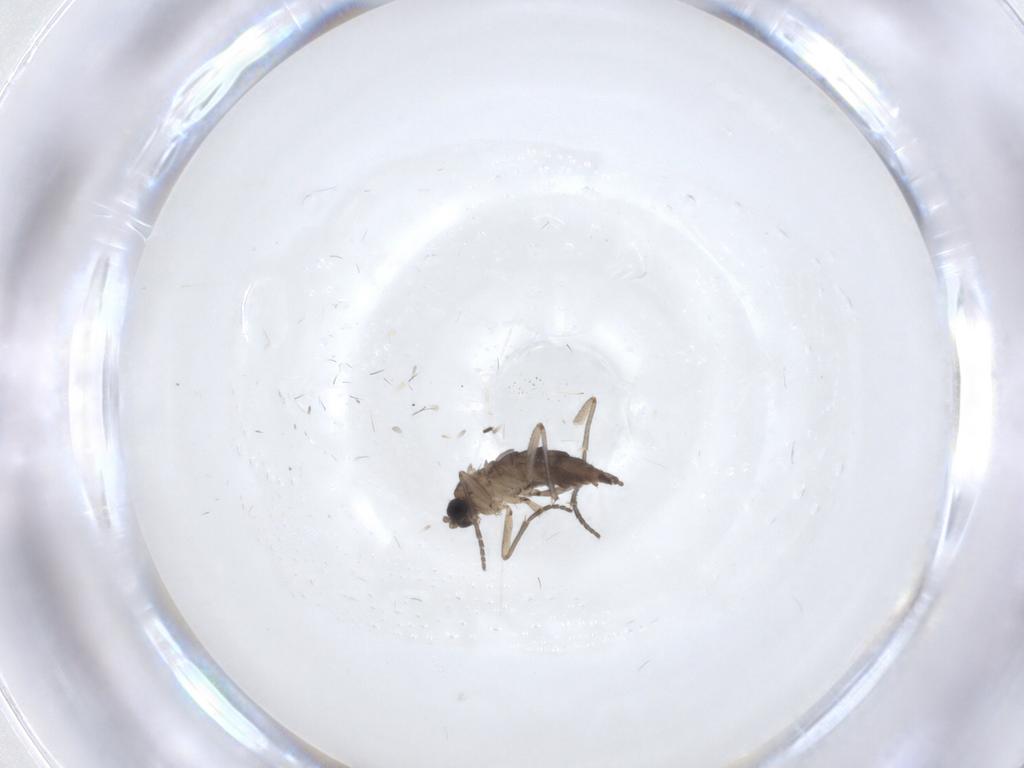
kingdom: Animalia
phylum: Arthropoda
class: Insecta
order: Diptera
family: Sciaridae
